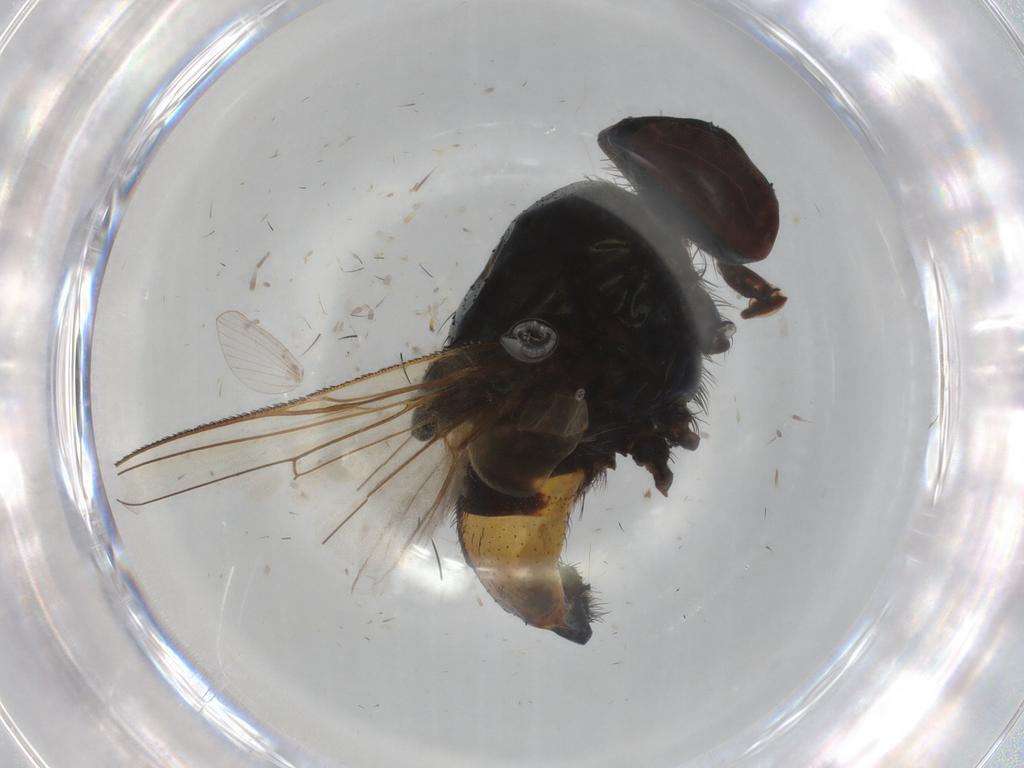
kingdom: Animalia
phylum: Arthropoda
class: Insecta
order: Diptera
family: Muscidae
